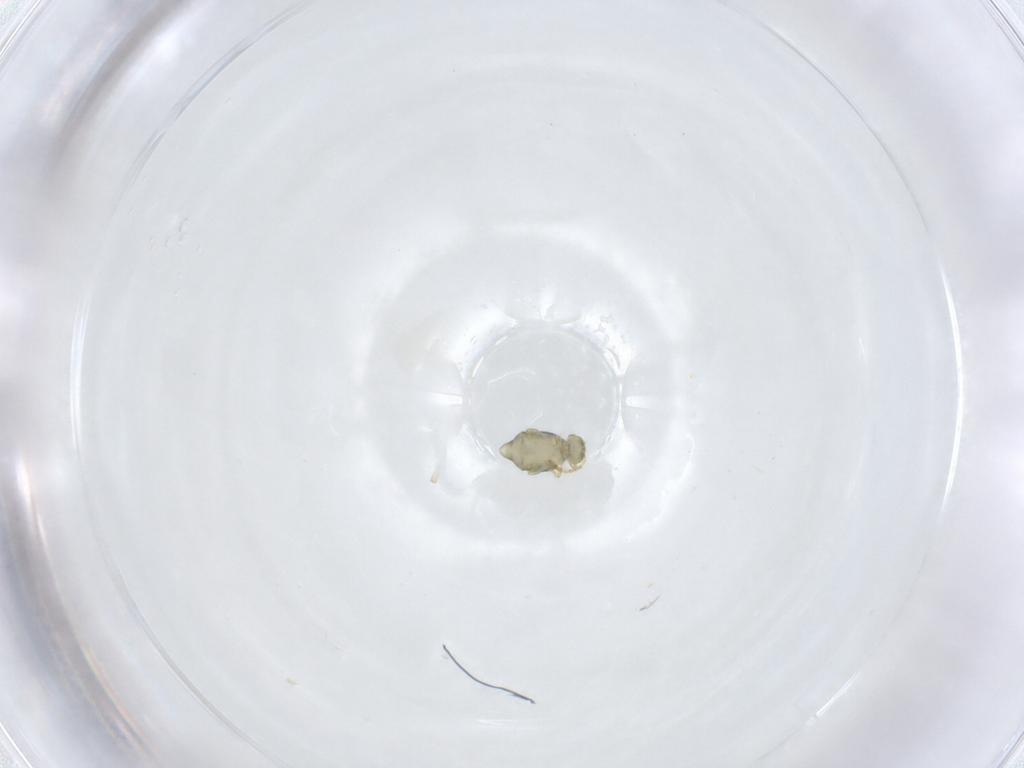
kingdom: Animalia
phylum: Arthropoda
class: Collembola
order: Symphypleona
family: Katiannidae
